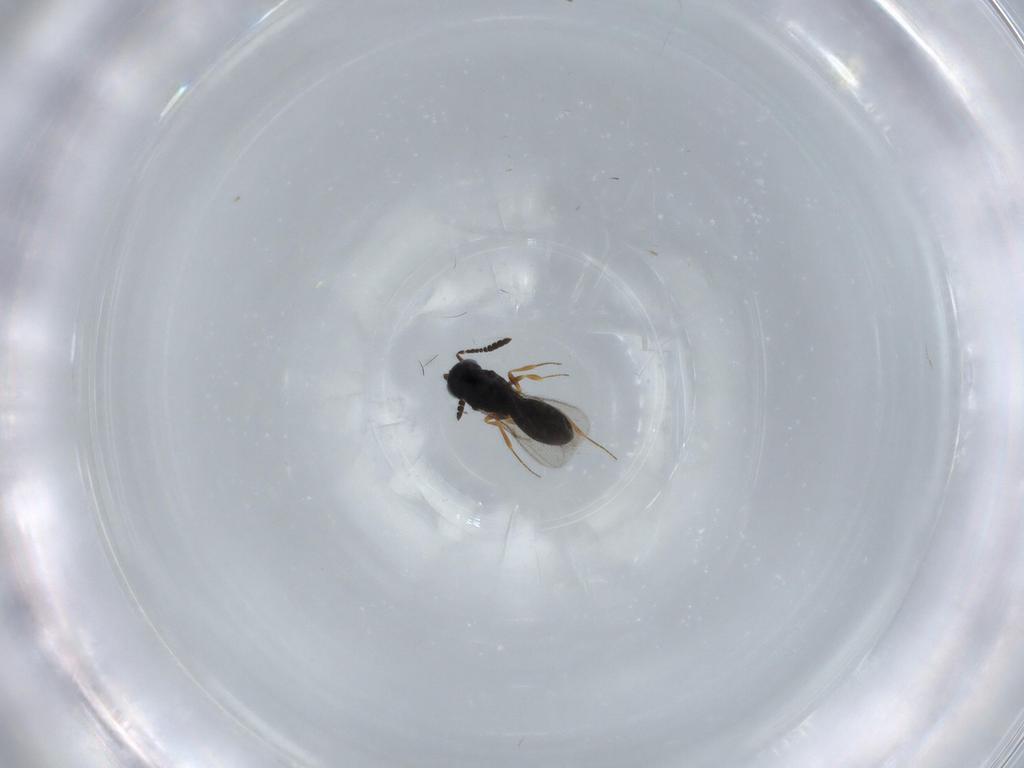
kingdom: Animalia
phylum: Arthropoda
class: Insecta
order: Hymenoptera
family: Scelionidae
